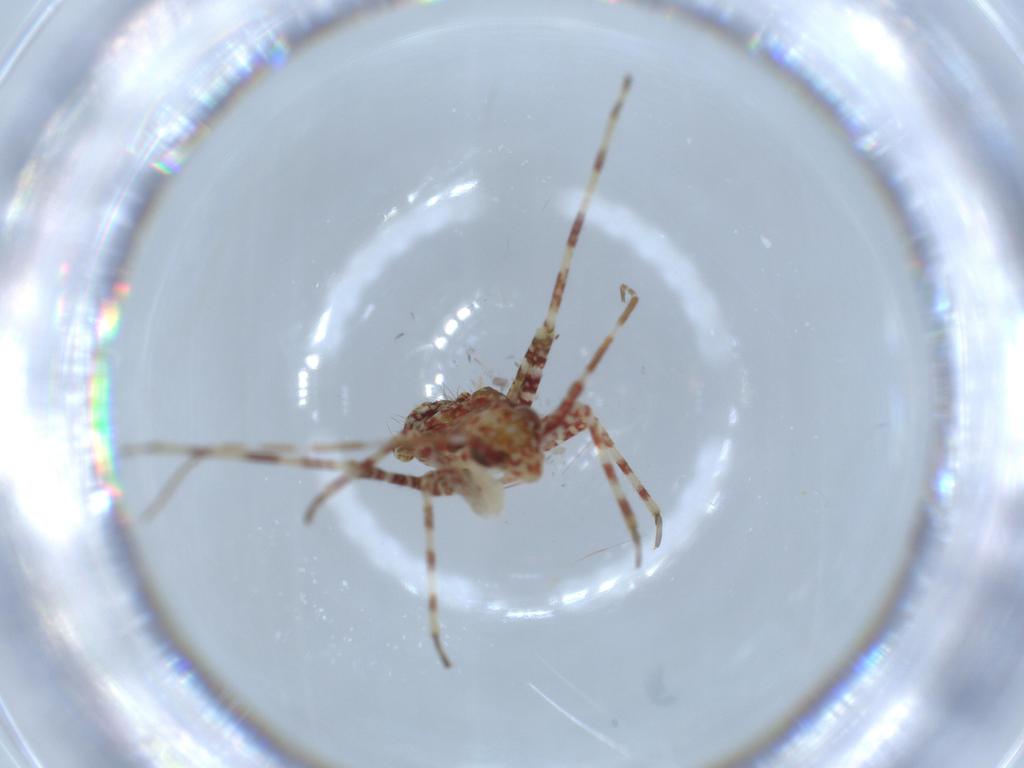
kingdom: Animalia
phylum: Arthropoda
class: Insecta
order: Hemiptera
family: Miridae
